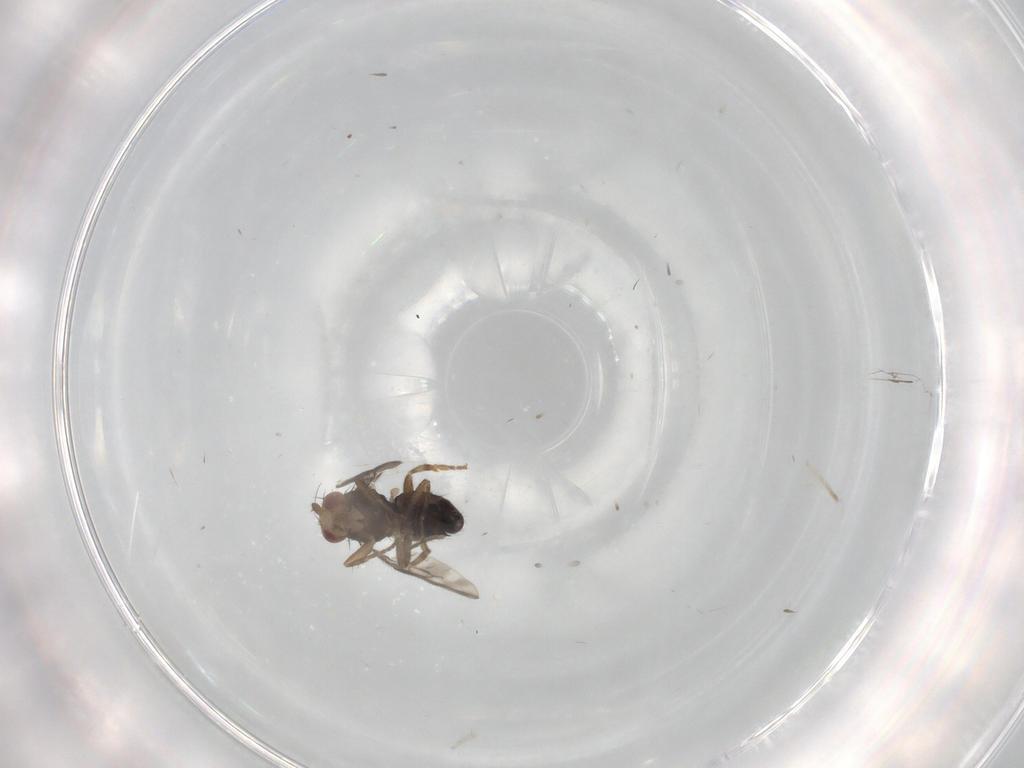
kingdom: Animalia
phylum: Arthropoda
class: Insecta
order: Diptera
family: Sphaeroceridae
